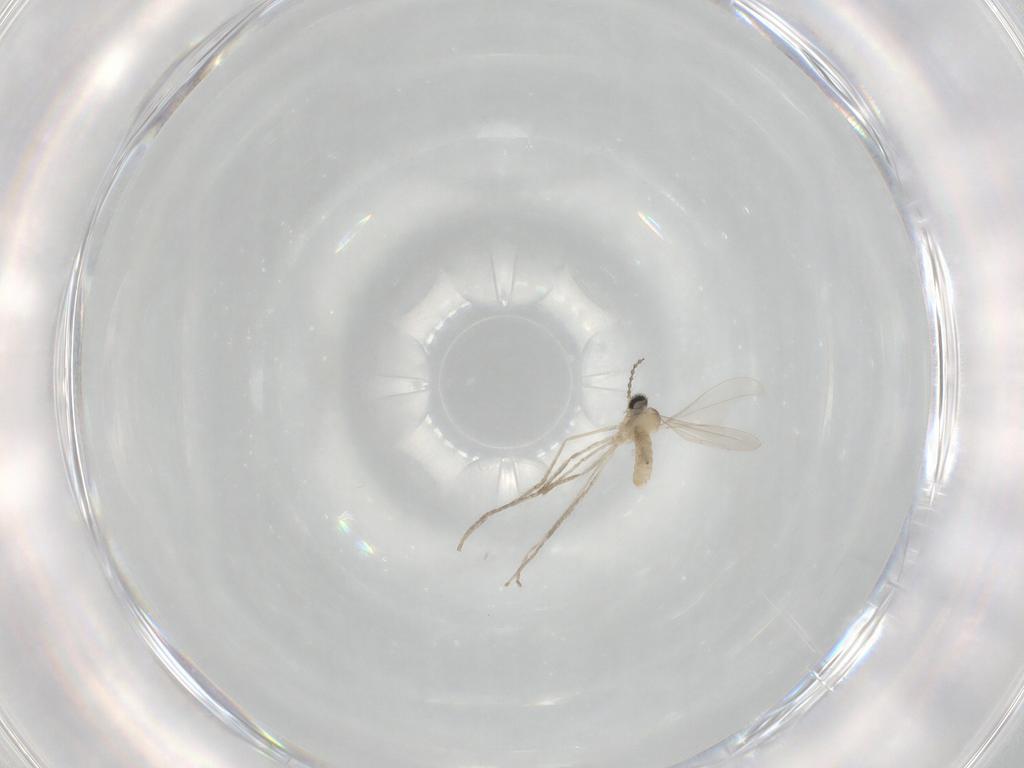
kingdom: Animalia
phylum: Arthropoda
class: Insecta
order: Diptera
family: Cecidomyiidae
